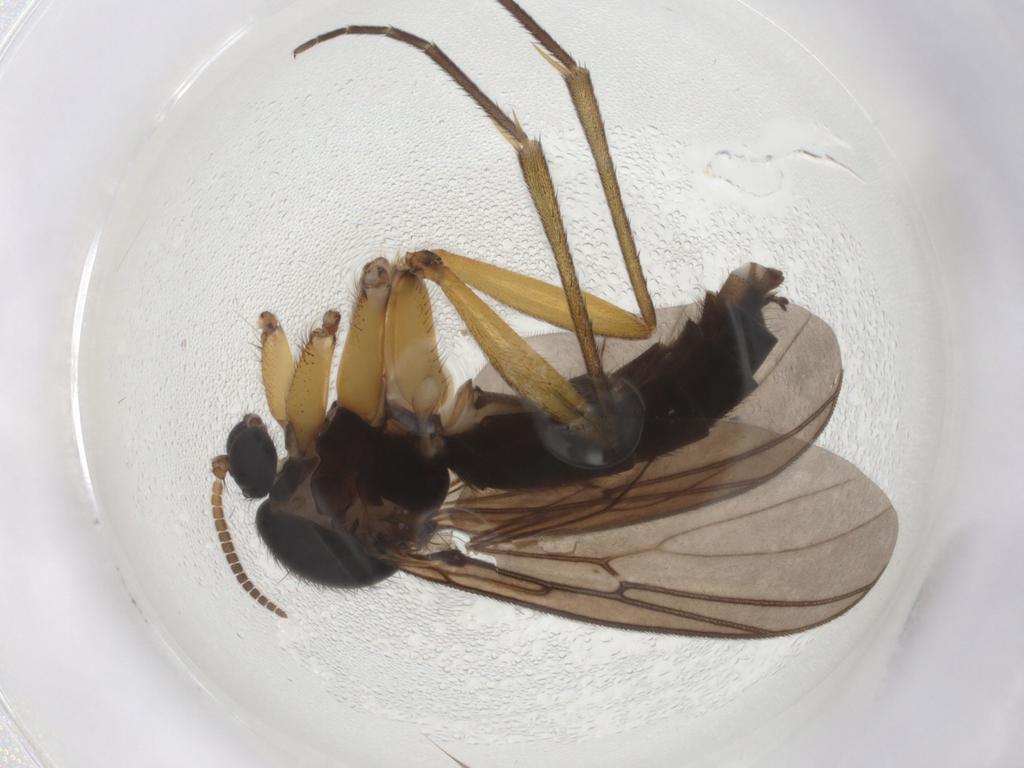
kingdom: Animalia
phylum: Arthropoda
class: Insecta
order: Diptera
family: Mycetophilidae
